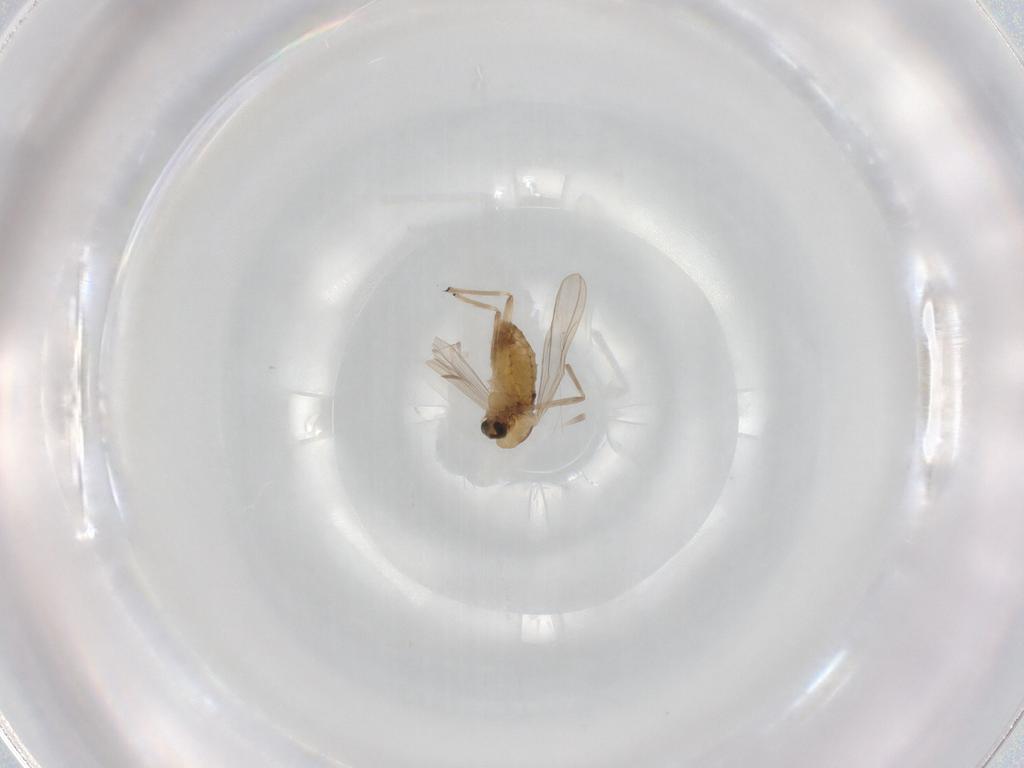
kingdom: Animalia
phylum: Arthropoda
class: Insecta
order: Diptera
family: Chironomidae
